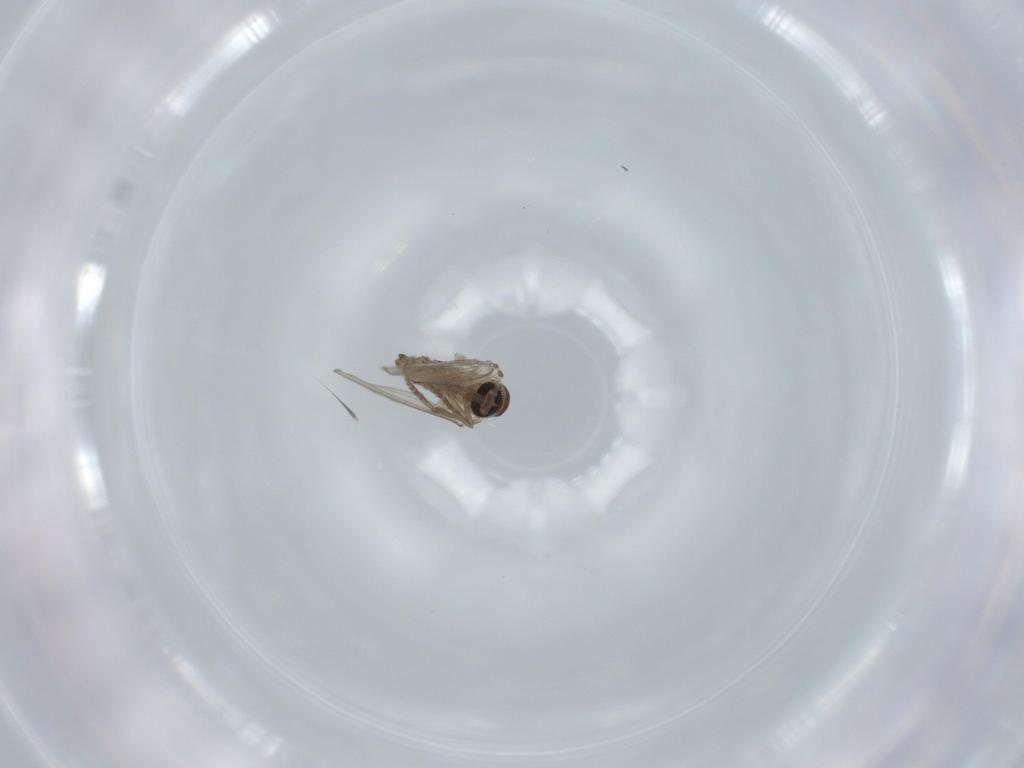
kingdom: Animalia
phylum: Arthropoda
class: Insecta
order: Diptera
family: Psychodidae
